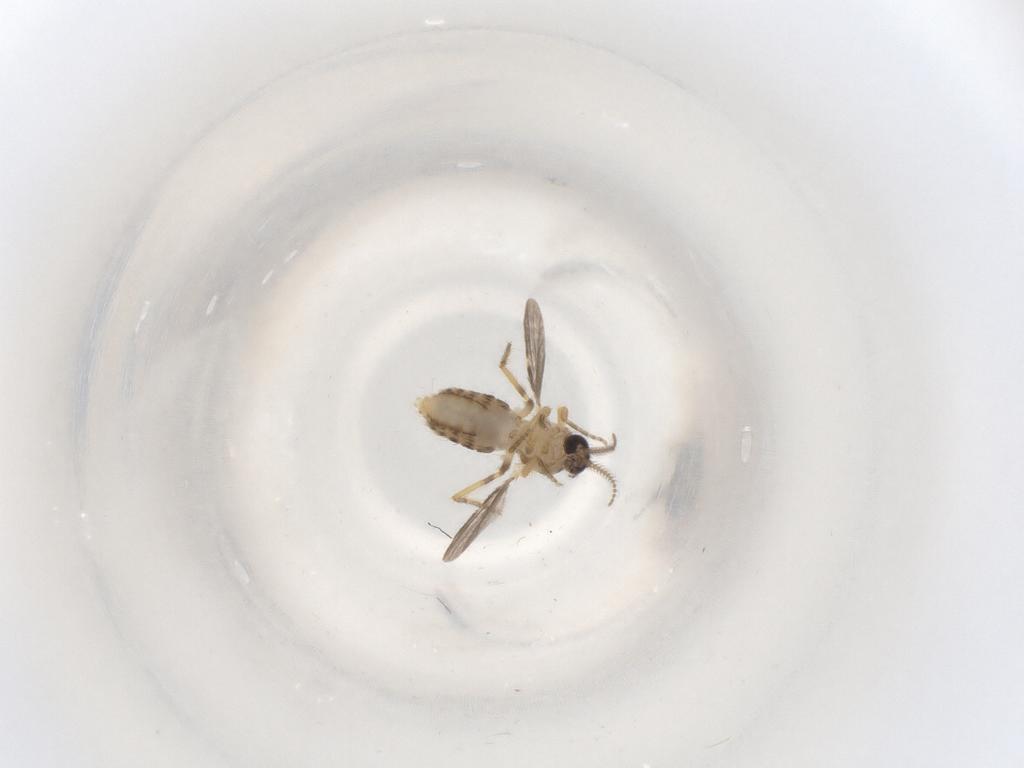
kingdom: Animalia
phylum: Arthropoda
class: Insecta
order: Diptera
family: Ceratopogonidae
